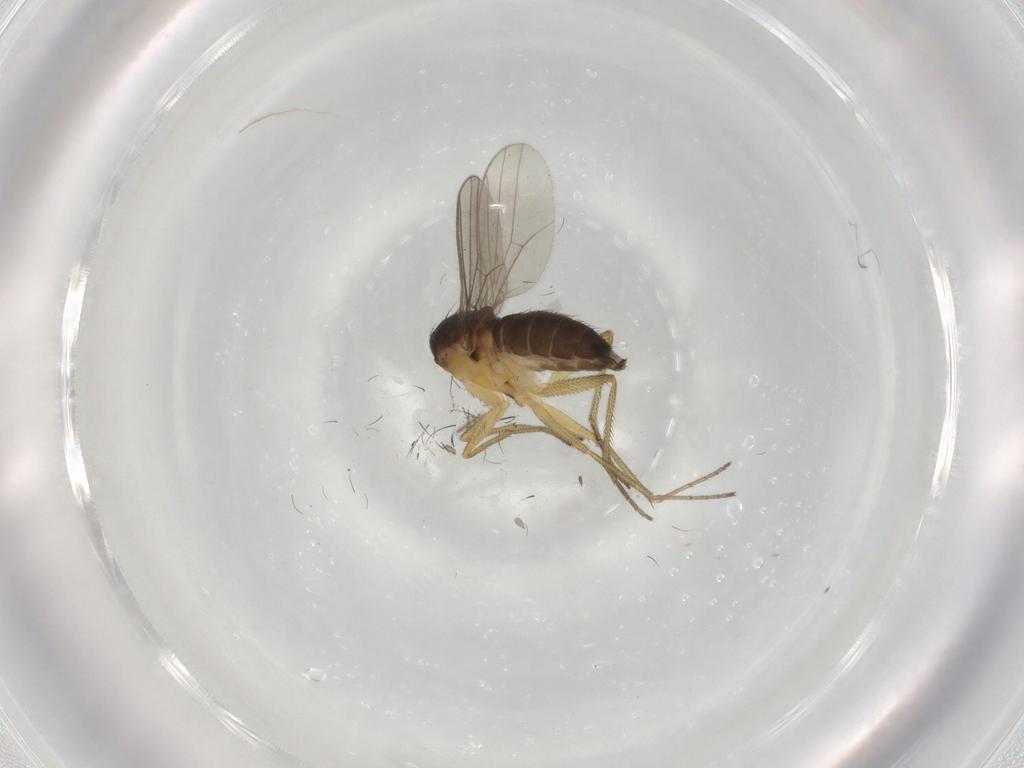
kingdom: Animalia
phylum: Arthropoda
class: Insecta
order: Diptera
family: Dolichopodidae
